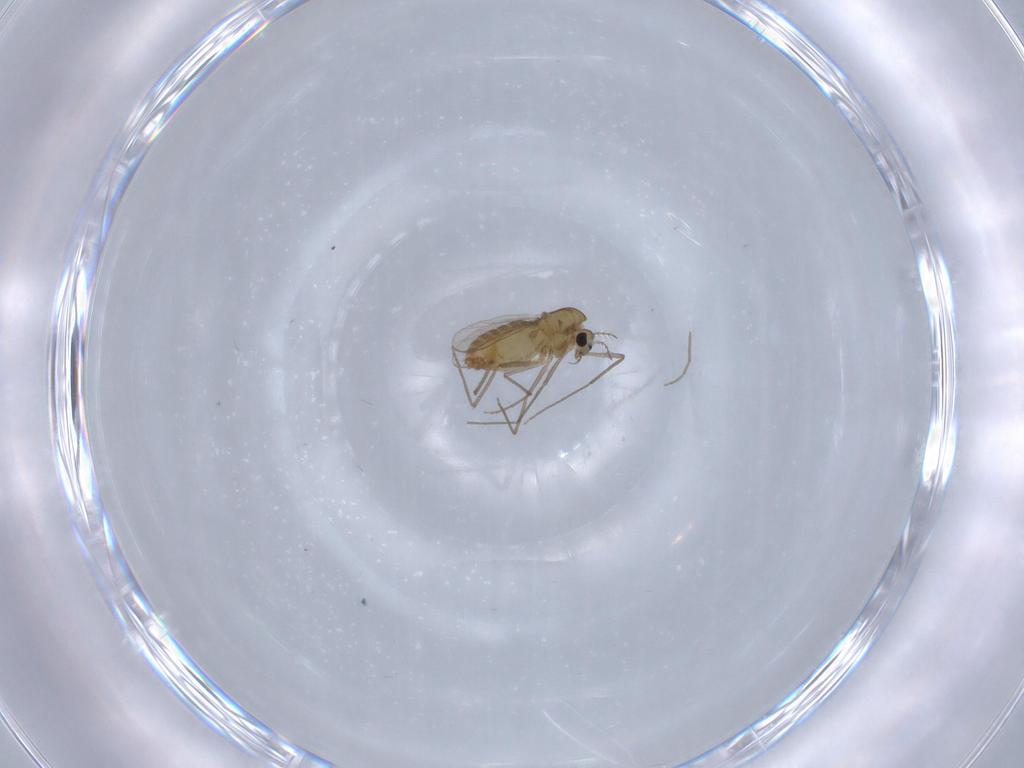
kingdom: Animalia
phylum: Arthropoda
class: Insecta
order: Diptera
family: Chironomidae
